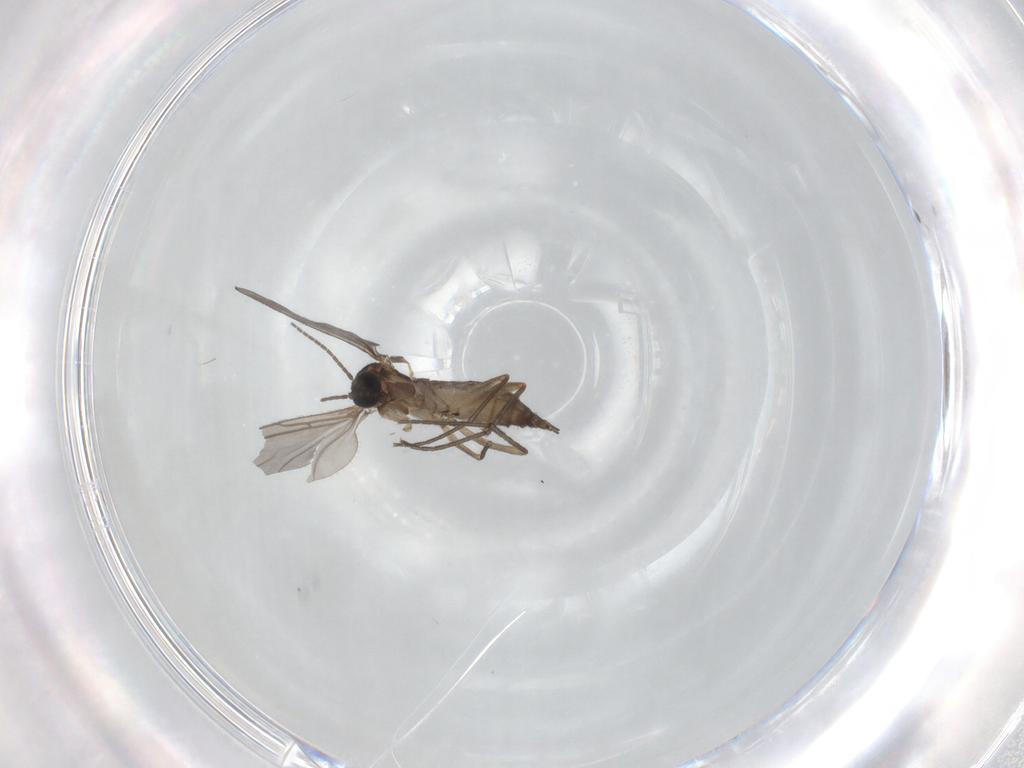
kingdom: Animalia
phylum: Arthropoda
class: Insecta
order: Diptera
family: Sciaridae
